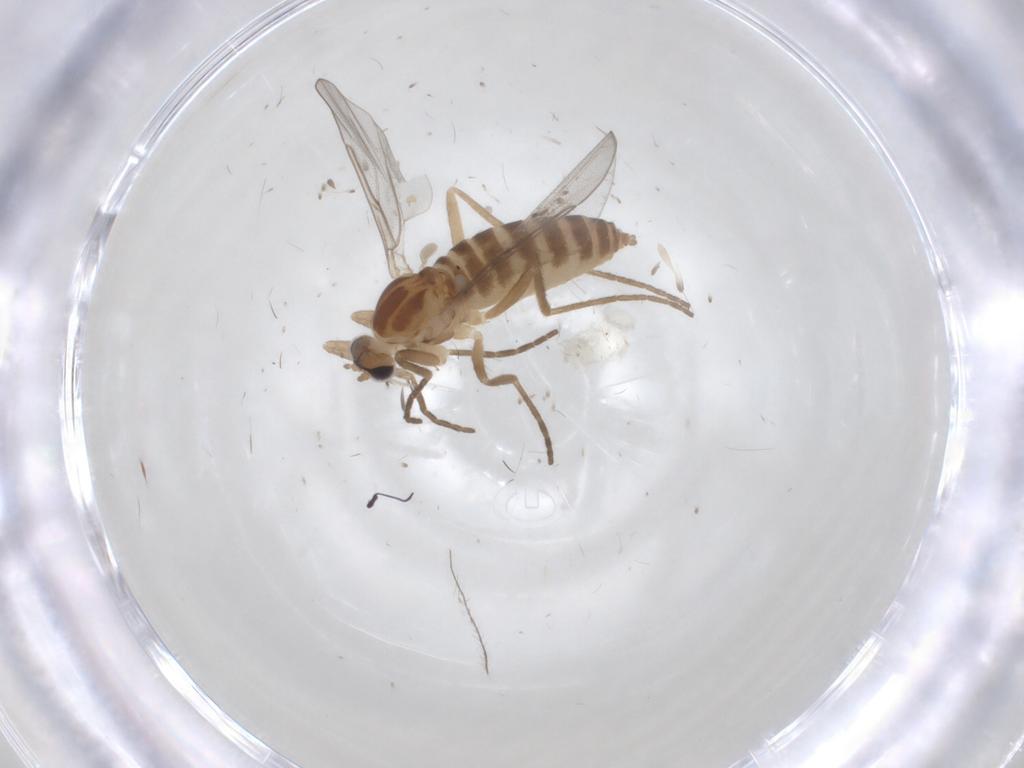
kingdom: Animalia
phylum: Arthropoda
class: Insecta
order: Diptera
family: Cecidomyiidae
